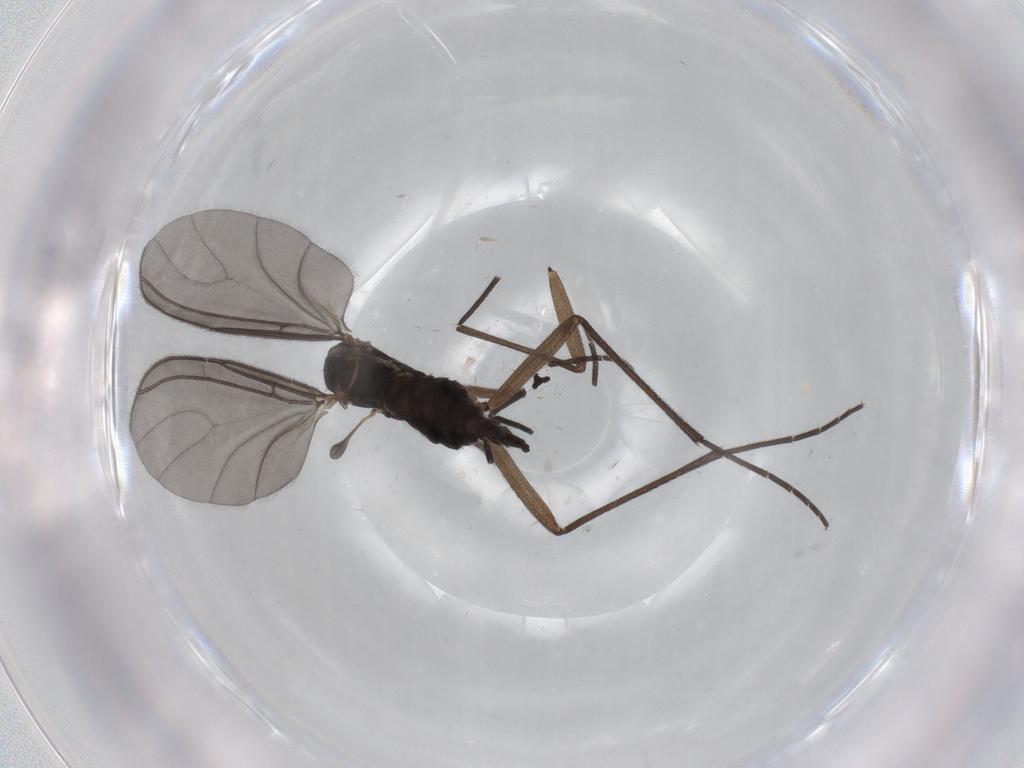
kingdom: Animalia
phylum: Arthropoda
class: Insecta
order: Diptera
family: Sciaridae
